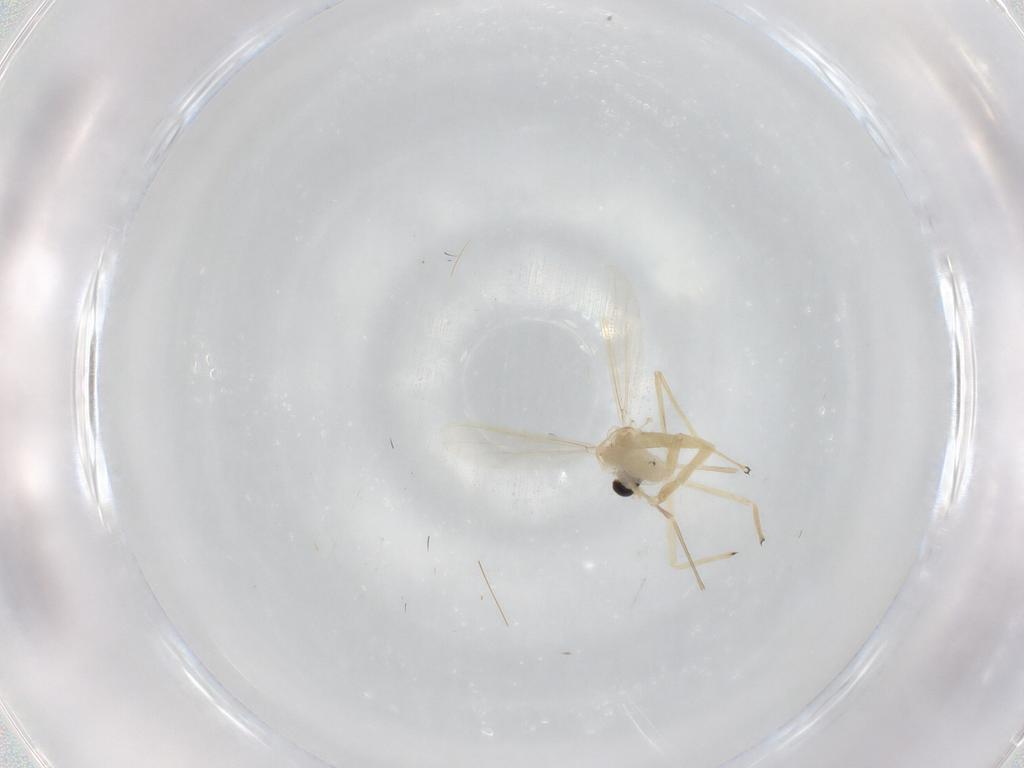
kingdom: Animalia
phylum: Arthropoda
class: Insecta
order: Diptera
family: Chironomidae
